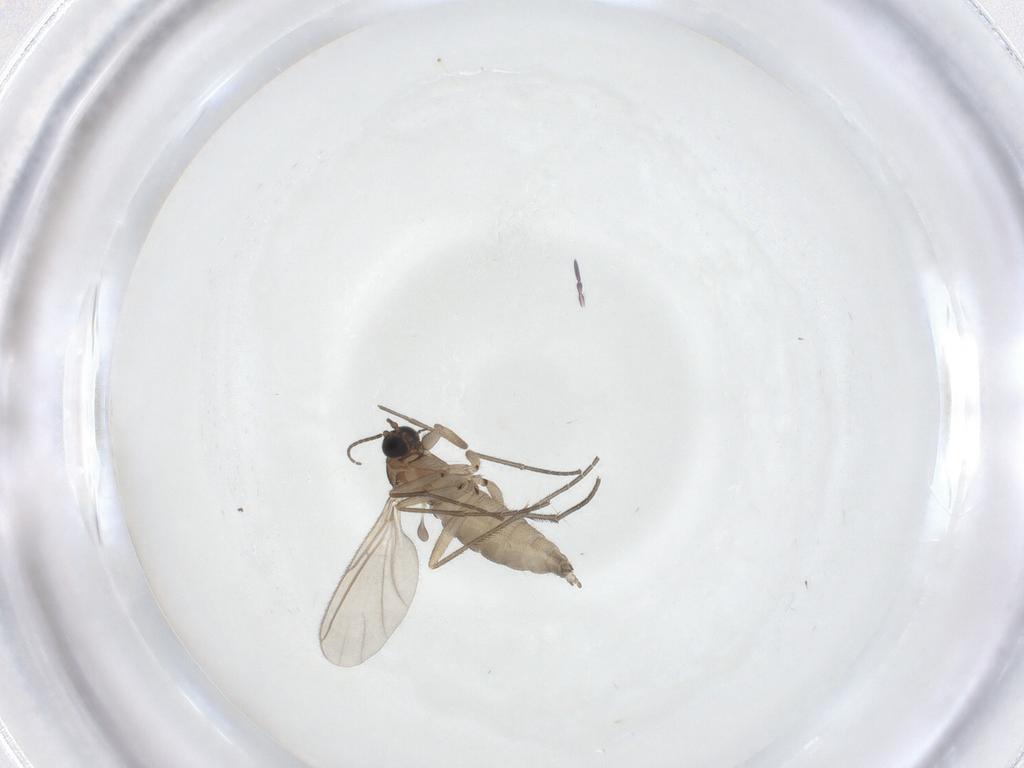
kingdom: Animalia
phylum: Arthropoda
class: Insecta
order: Diptera
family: Sciaridae
